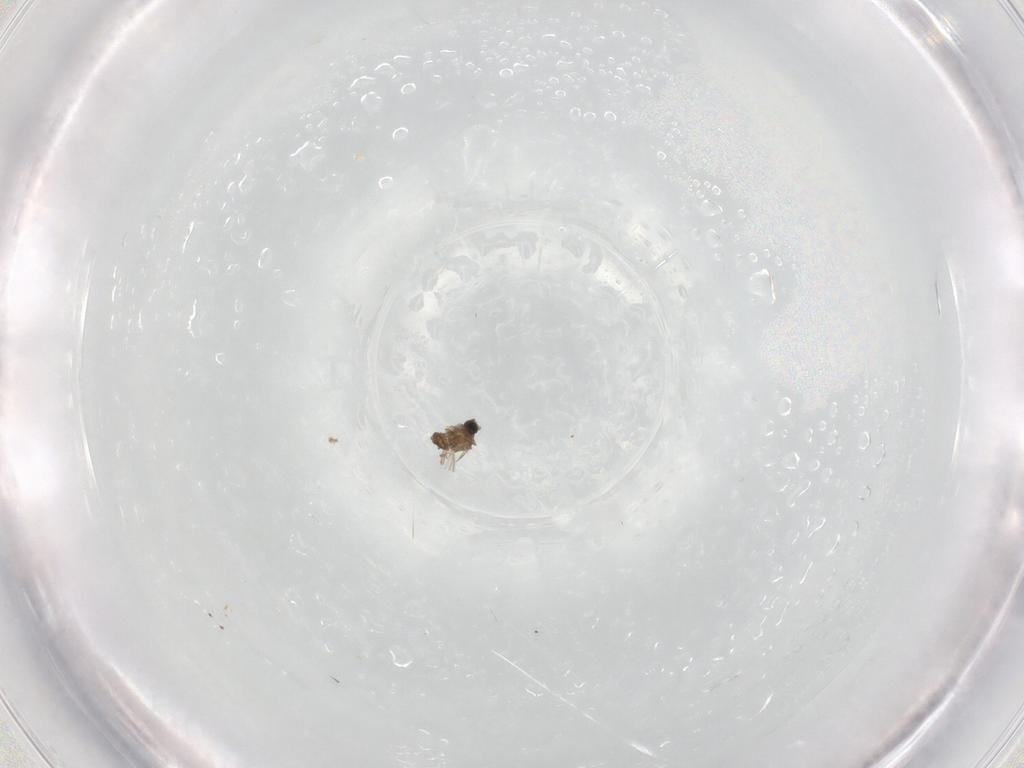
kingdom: Animalia
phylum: Arthropoda
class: Insecta
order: Diptera
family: Cecidomyiidae
